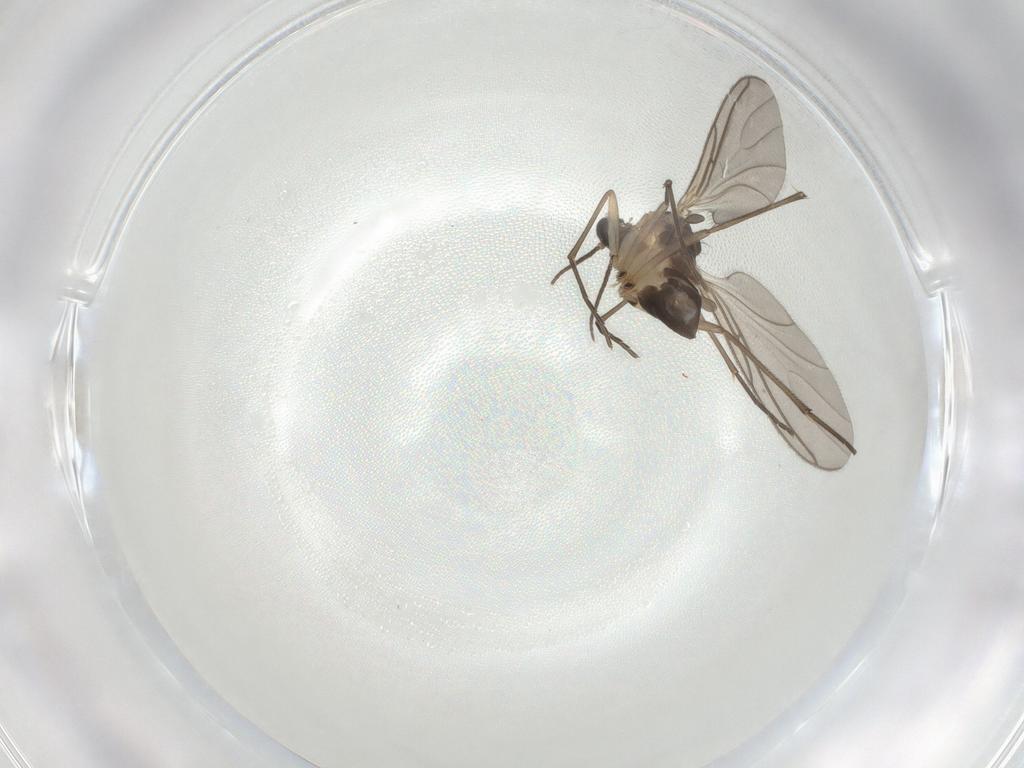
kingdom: Animalia
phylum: Arthropoda
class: Insecta
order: Diptera
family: Sciaridae
